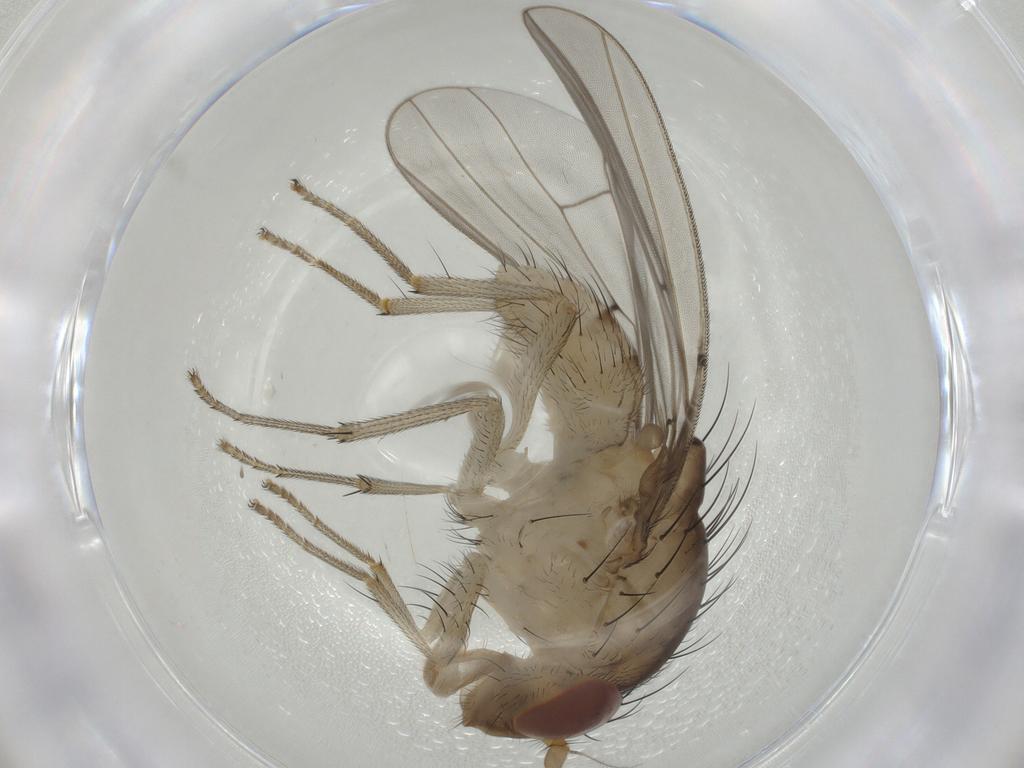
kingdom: Animalia
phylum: Arthropoda
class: Insecta
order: Diptera
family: Cecidomyiidae
